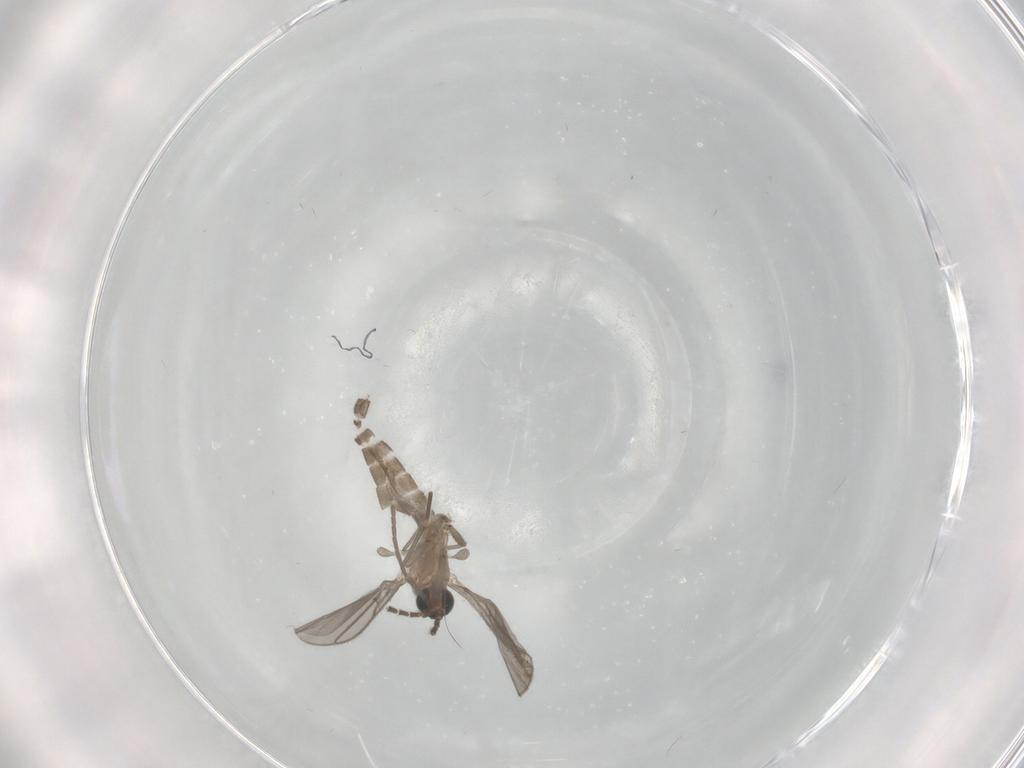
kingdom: Animalia
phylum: Arthropoda
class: Insecta
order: Diptera
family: Sciaridae
